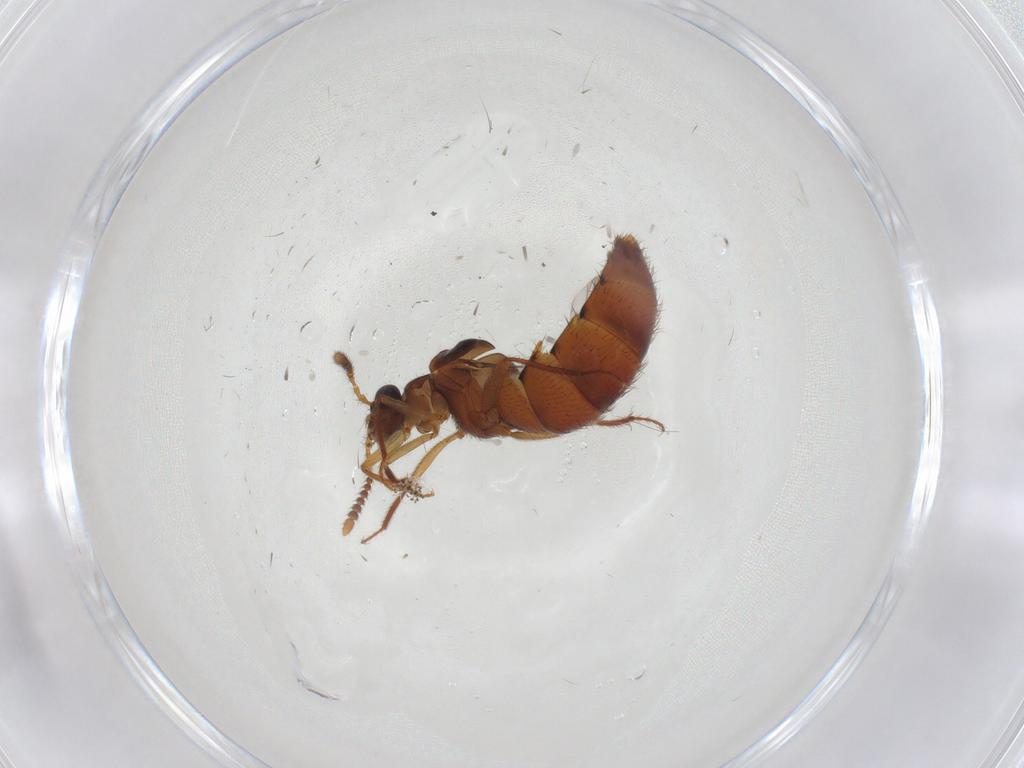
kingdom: Animalia
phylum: Arthropoda
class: Insecta
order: Coleoptera
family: Staphylinidae
